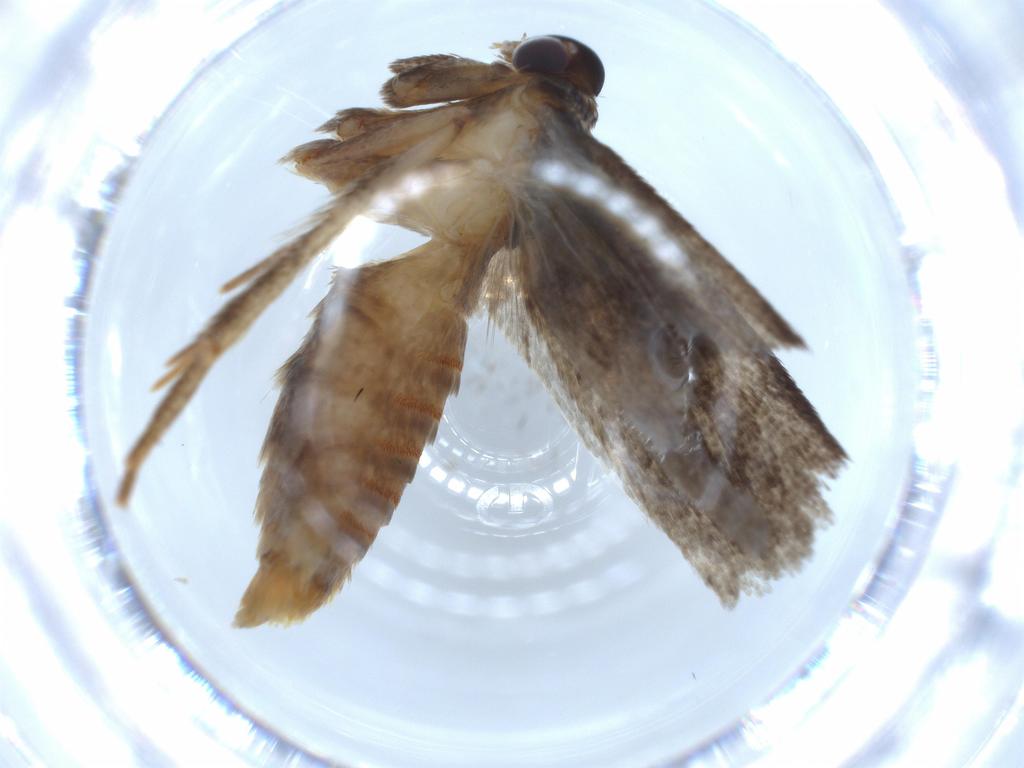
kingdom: Animalia
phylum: Arthropoda
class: Insecta
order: Lepidoptera
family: Blastobasidae
